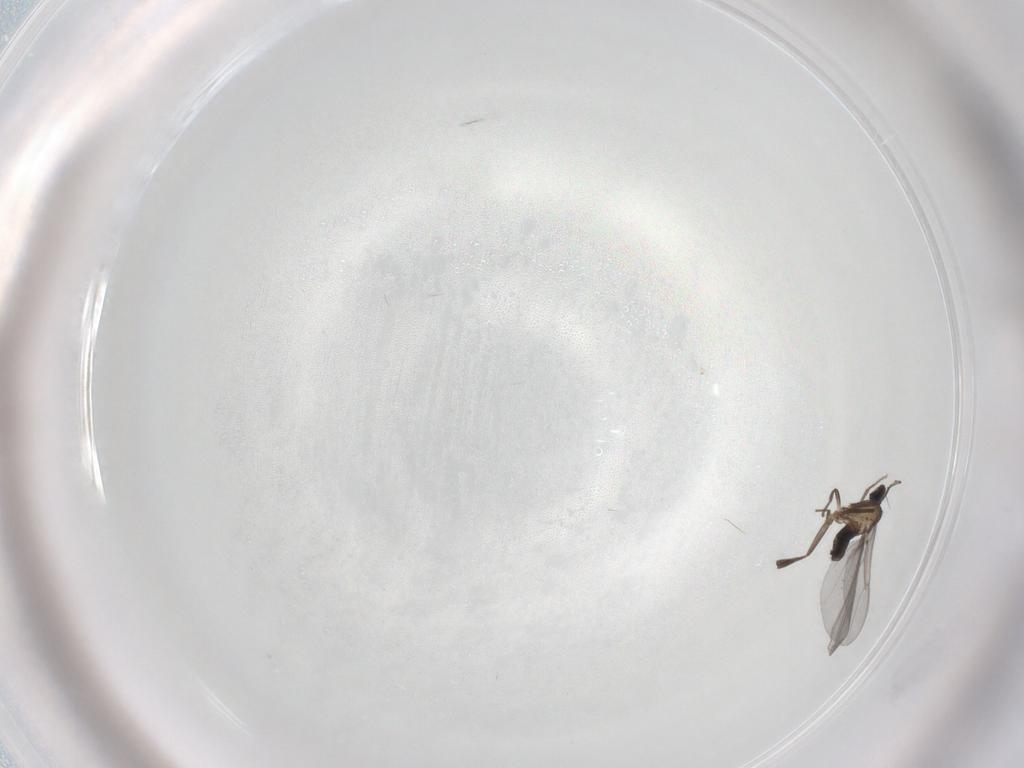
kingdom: Animalia
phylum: Arthropoda
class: Insecta
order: Diptera
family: Phoridae
